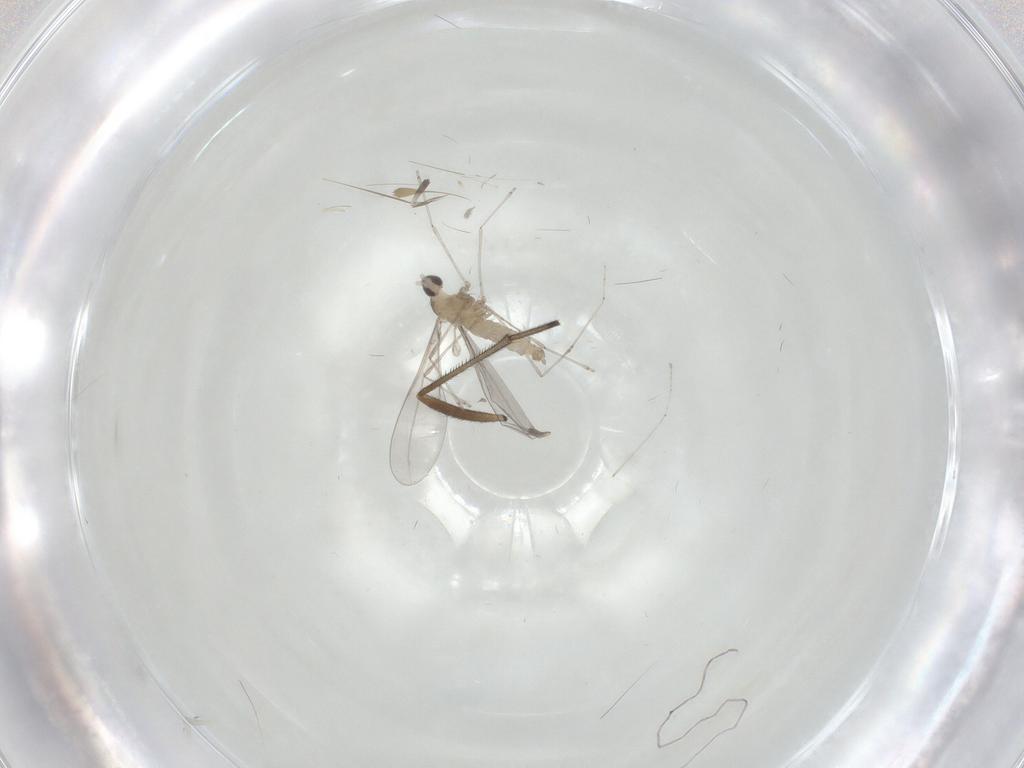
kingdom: Animalia
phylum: Arthropoda
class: Insecta
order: Diptera
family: Cecidomyiidae
